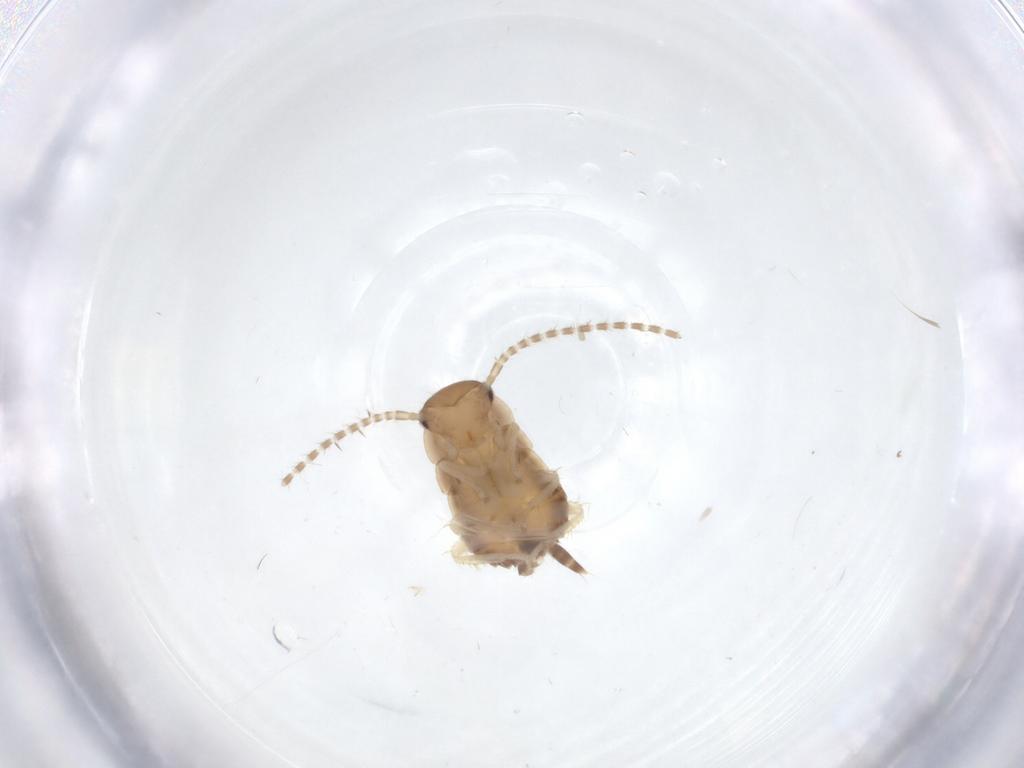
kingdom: Animalia
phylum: Arthropoda
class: Insecta
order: Blattodea
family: Ectobiidae
